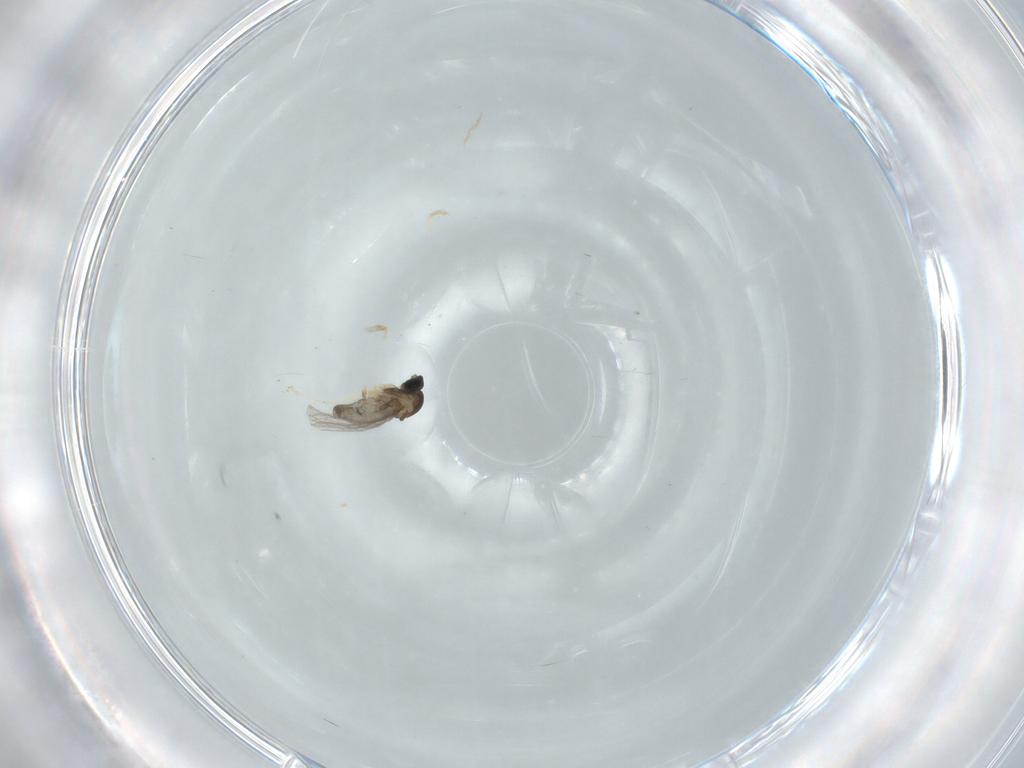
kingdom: Animalia
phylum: Arthropoda
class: Insecta
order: Diptera
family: Cecidomyiidae
